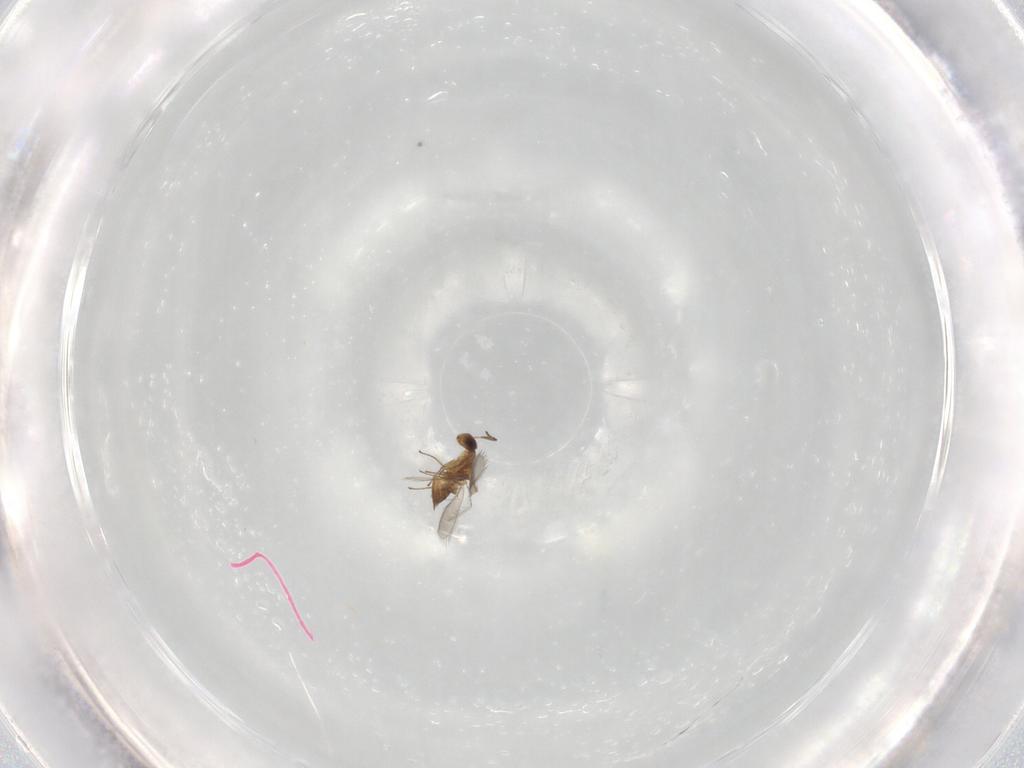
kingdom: Animalia
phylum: Arthropoda
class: Insecta
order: Hymenoptera
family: Mymaridae
